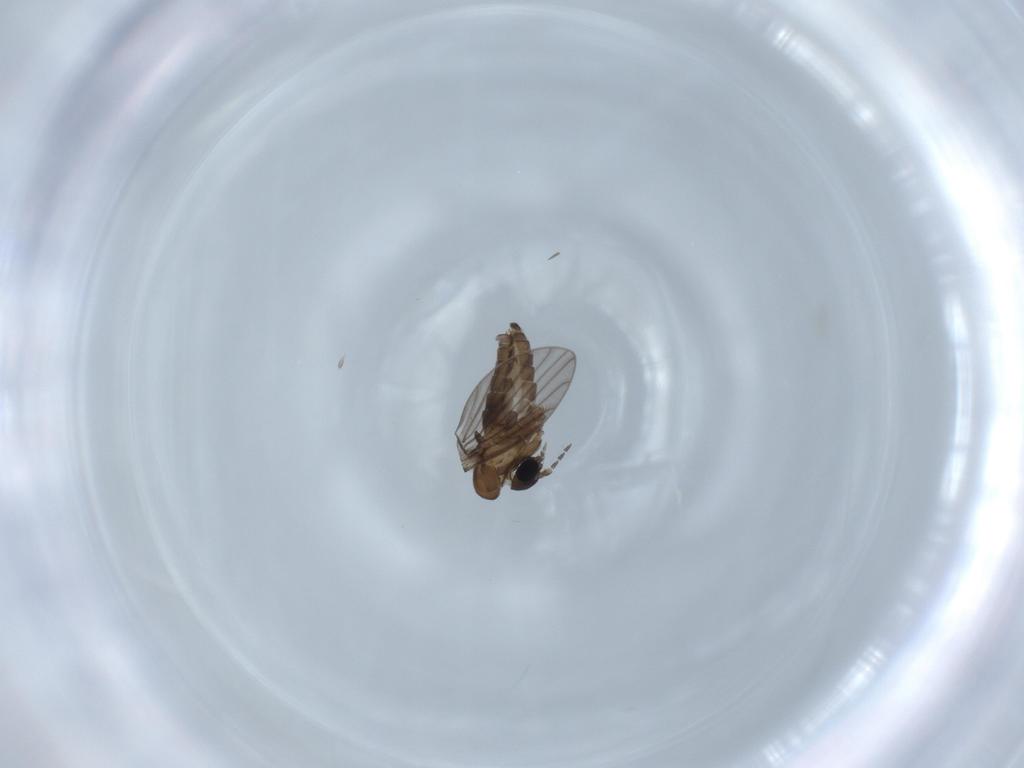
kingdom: Animalia
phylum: Arthropoda
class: Insecta
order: Diptera
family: Psychodidae
